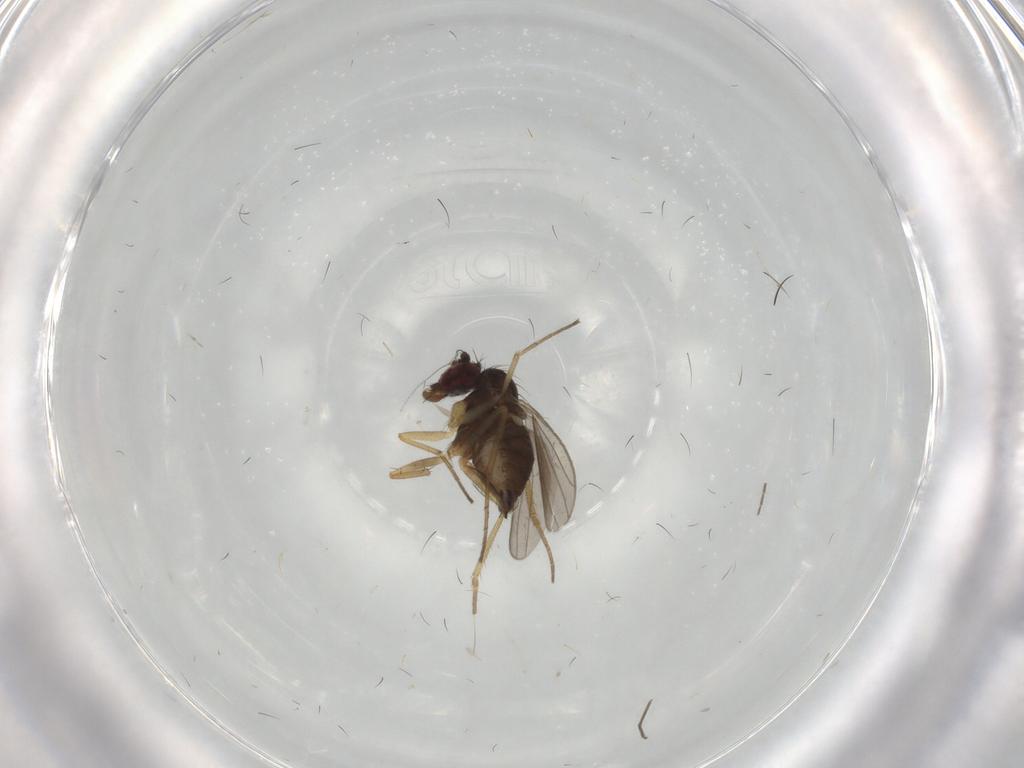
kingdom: Animalia
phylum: Arthropoda
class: Insecta
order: Diptera
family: Dolichopodidae
